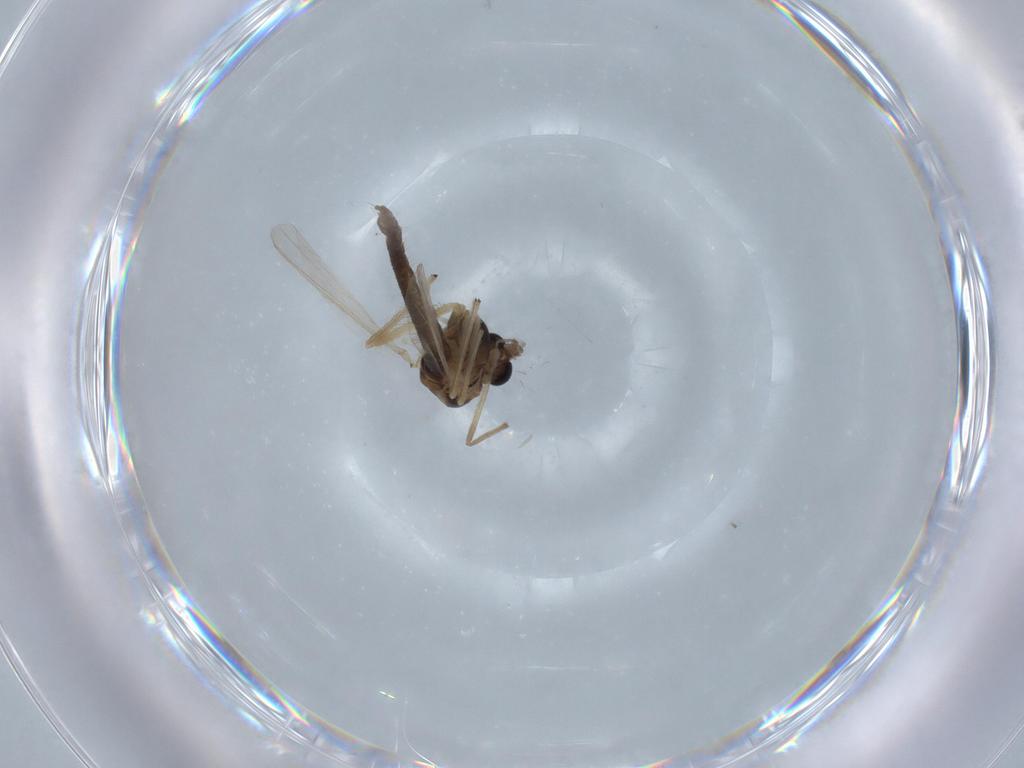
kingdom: Animalia
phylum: Arthropoda
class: Insecta
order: Diptera
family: Chironomidae
